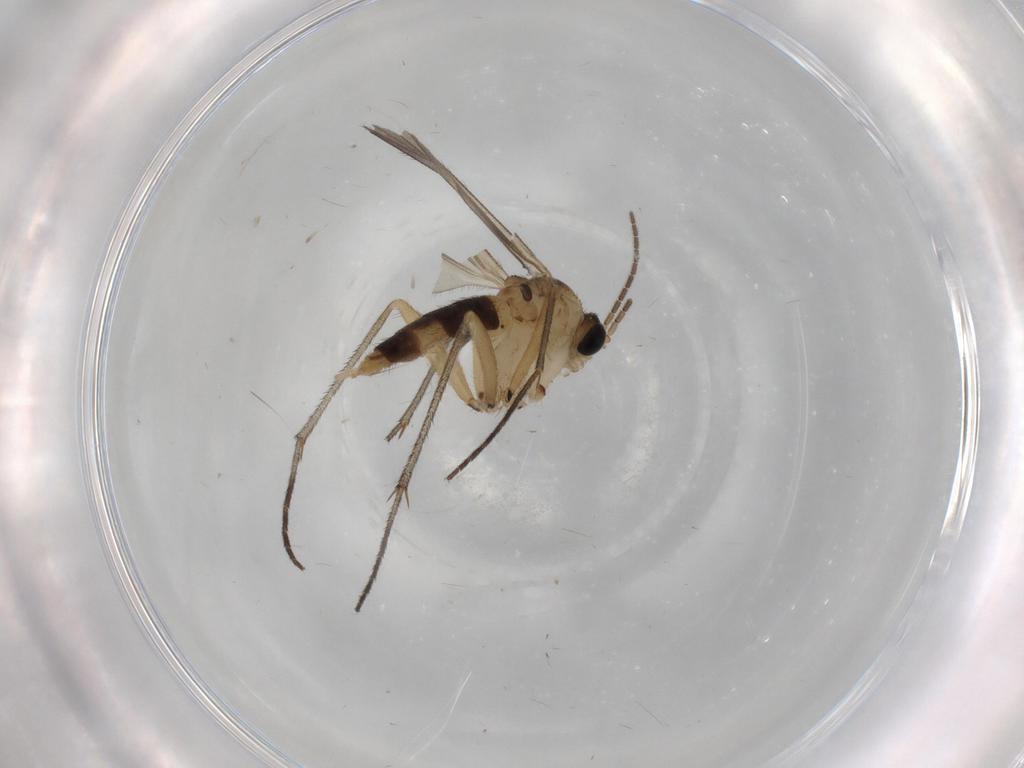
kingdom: Animalia
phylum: Arthropoda
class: Insecta
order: Diptera
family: Sciaridae
